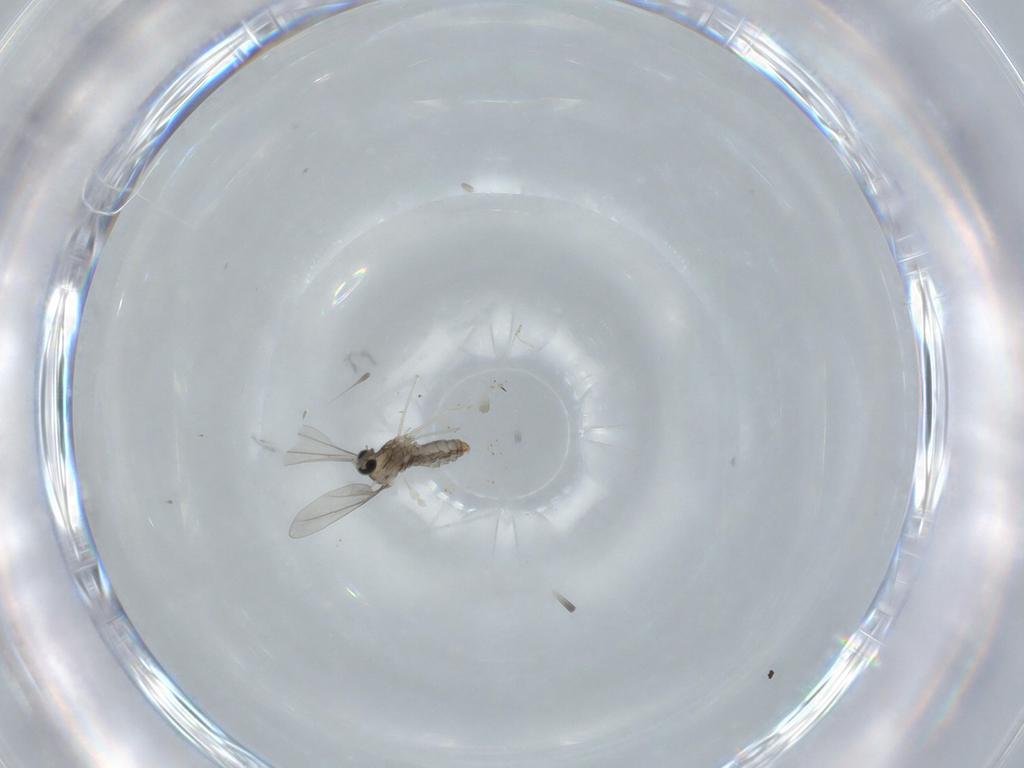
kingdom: Animalia
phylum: Arthropoda
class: Insecta
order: Diptera
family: Cecidomyiidae
